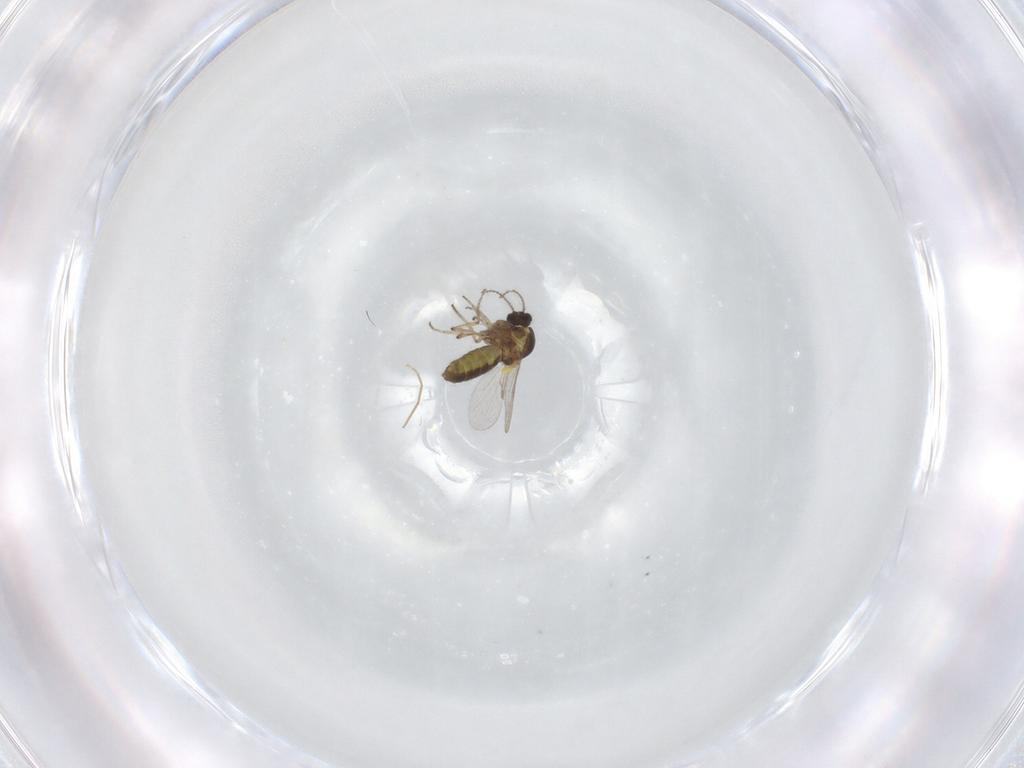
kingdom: Animalia
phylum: Arthropoda
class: Insecta
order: Diptera
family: Ceratopogonidae
